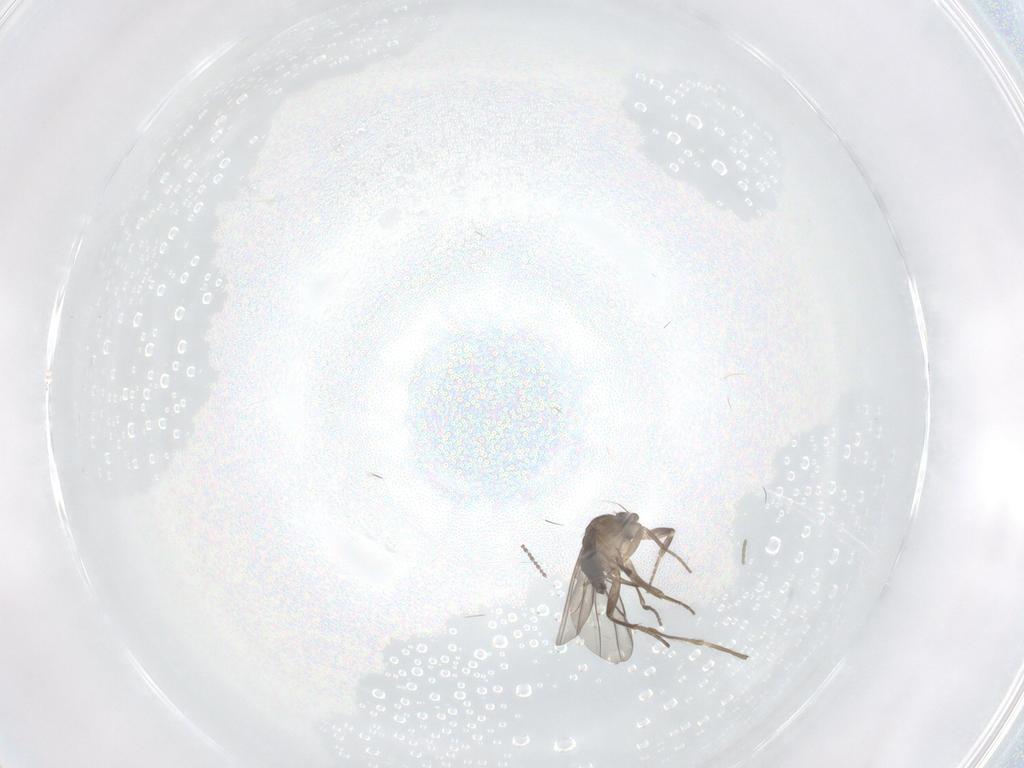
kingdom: Animalia
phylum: Arthropoda
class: Insecta
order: Diptera
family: Chironomidae
